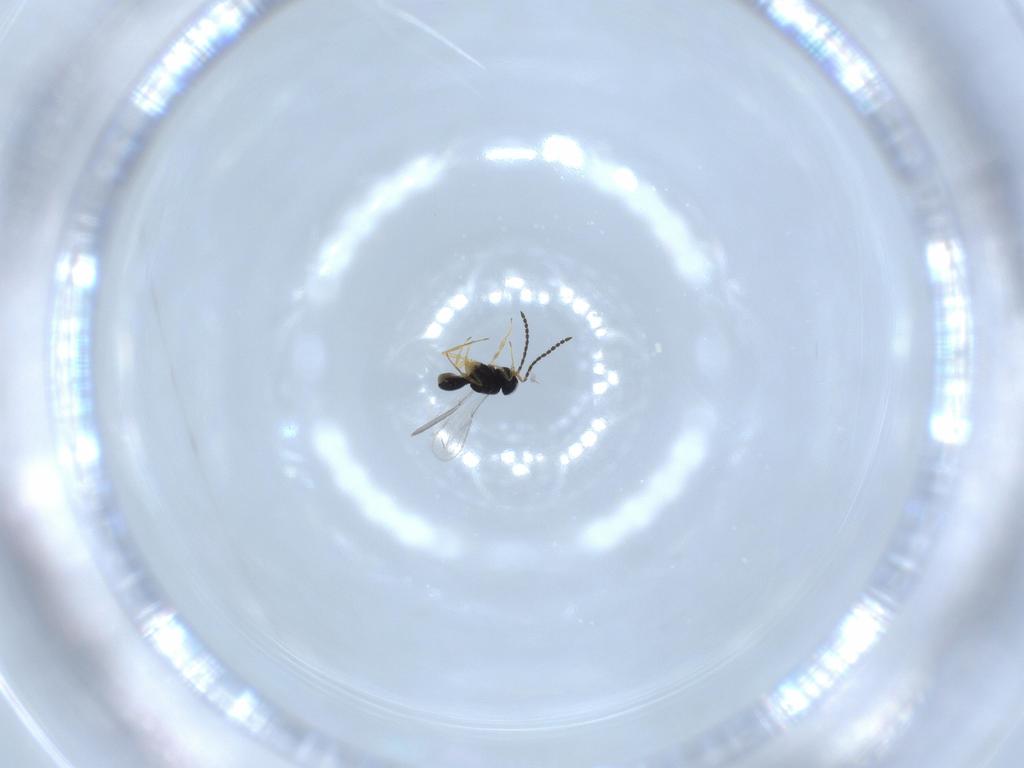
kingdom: Animalia
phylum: Arthropoda
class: Insecta
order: Hymenoptera
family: Scelionidae
